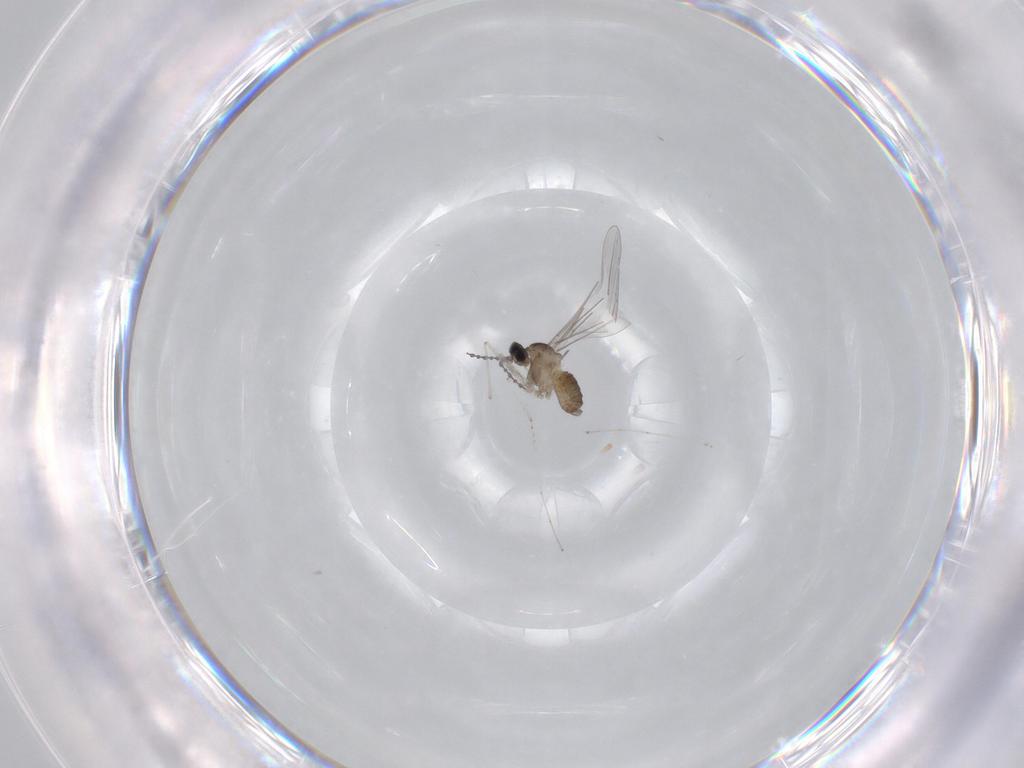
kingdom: Animalia
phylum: Arthropoda
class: Insecta
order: Diptera
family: Cecidomyiidae
